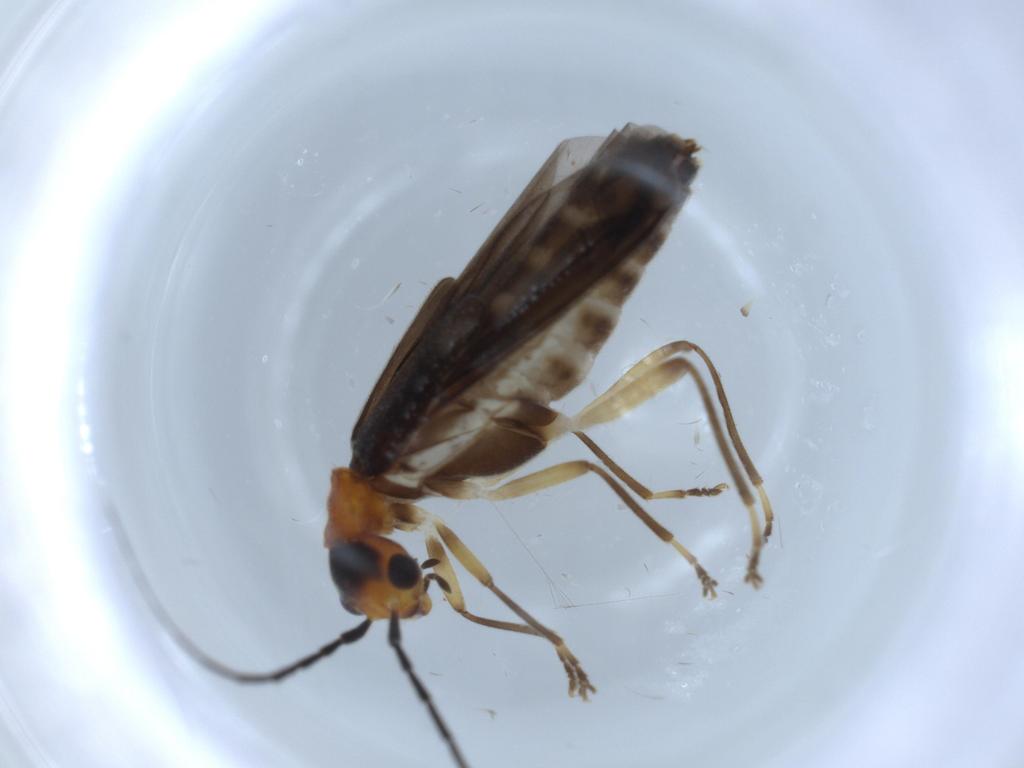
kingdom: Animalia
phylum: Arthropoda
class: Insecta
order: Coleoptera
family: Cantharidae
